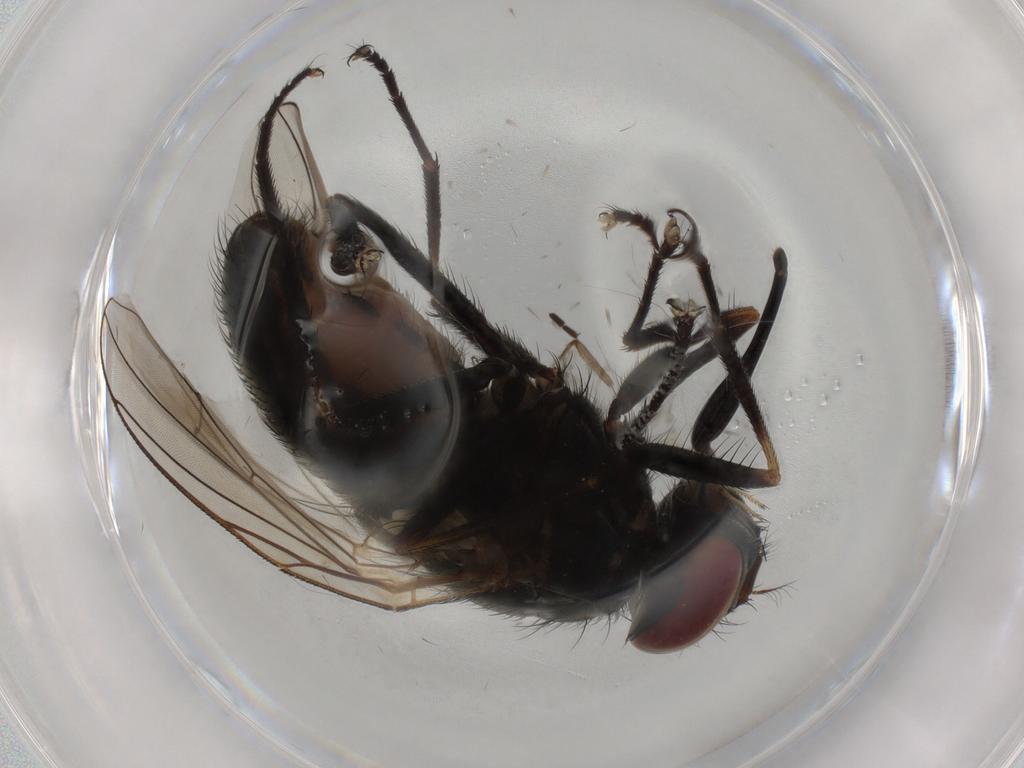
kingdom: Animalia
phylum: Arthropoda
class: Insecta
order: Diptera
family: Muscidae
